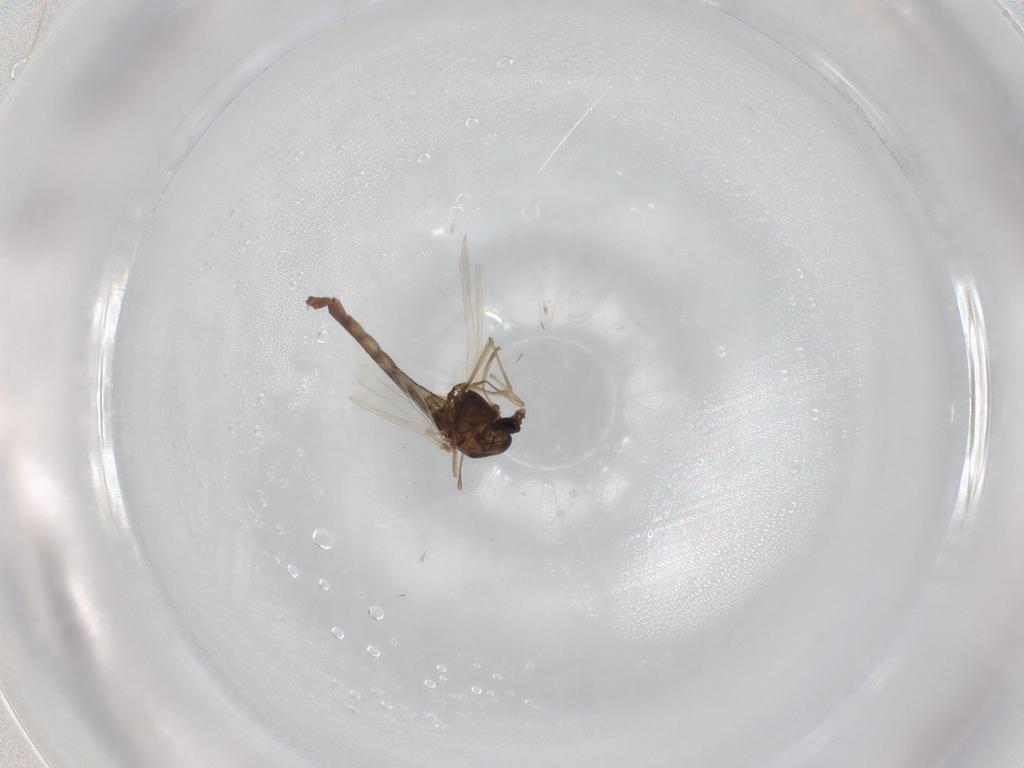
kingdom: Animalia
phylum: Arthropoda
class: Insecta
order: Diptera
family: Chironomidae
